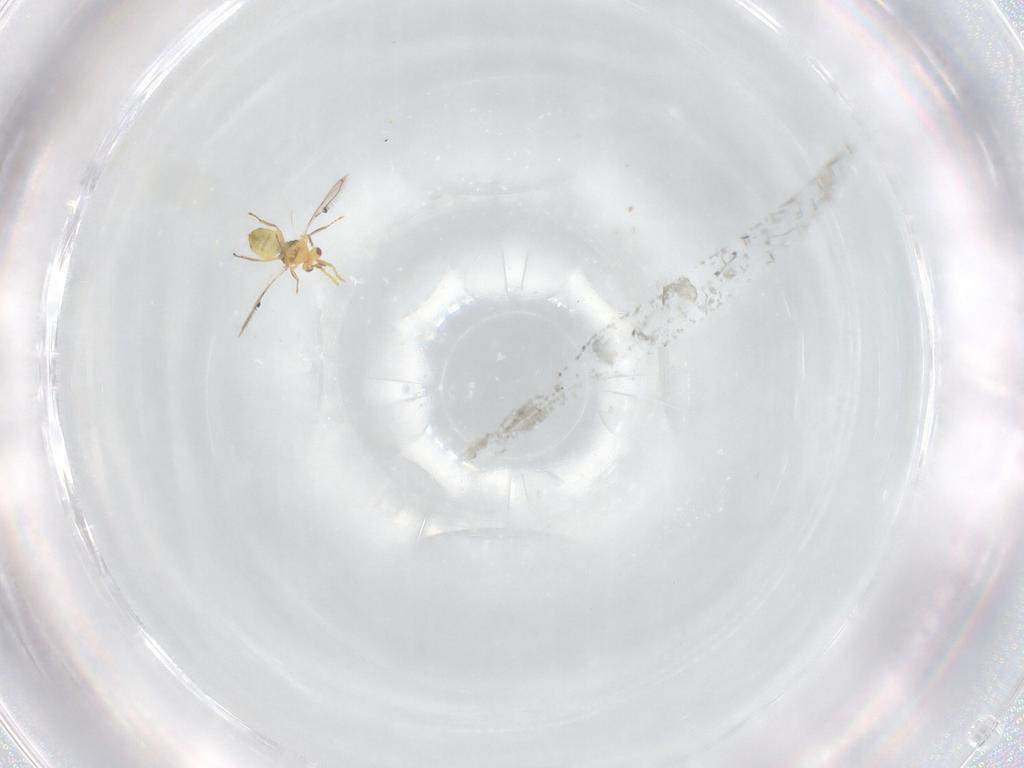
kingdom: Animalia
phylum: Arthropoda
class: Insecta
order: Hymenoptera
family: Eulophidae
